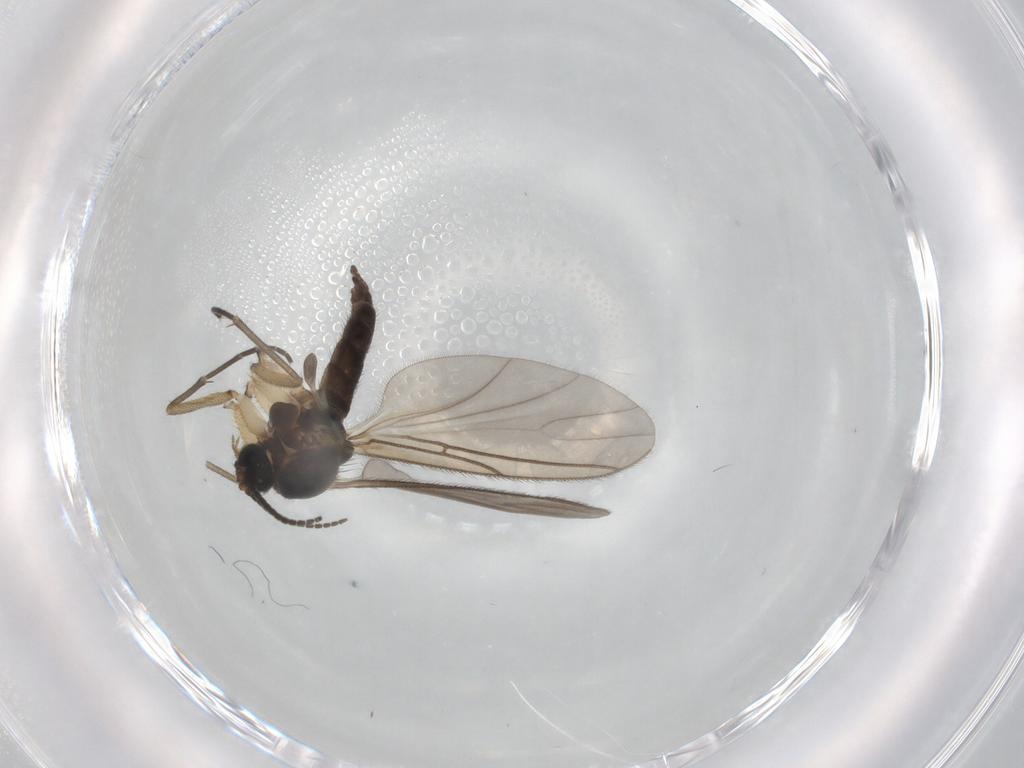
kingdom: Animalia
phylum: Arthropoda
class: Insecta
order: Diptera
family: Sciaridae
